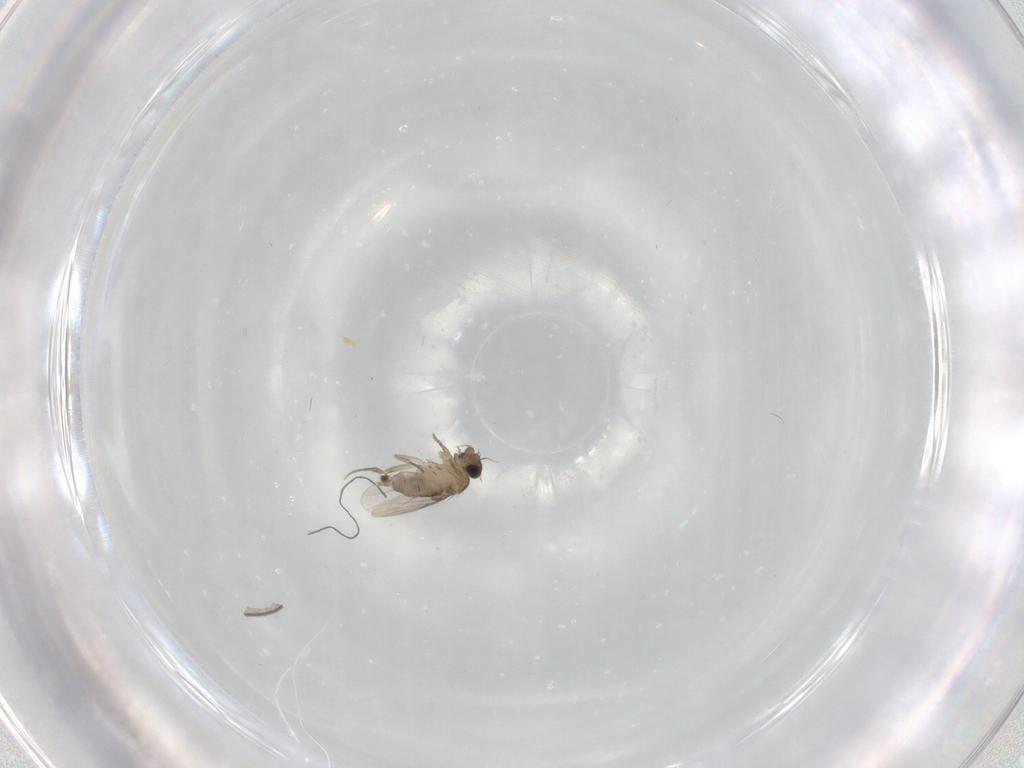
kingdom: Animalia
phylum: Arthropoda
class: Insecta
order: Diptera
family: Phoridae
